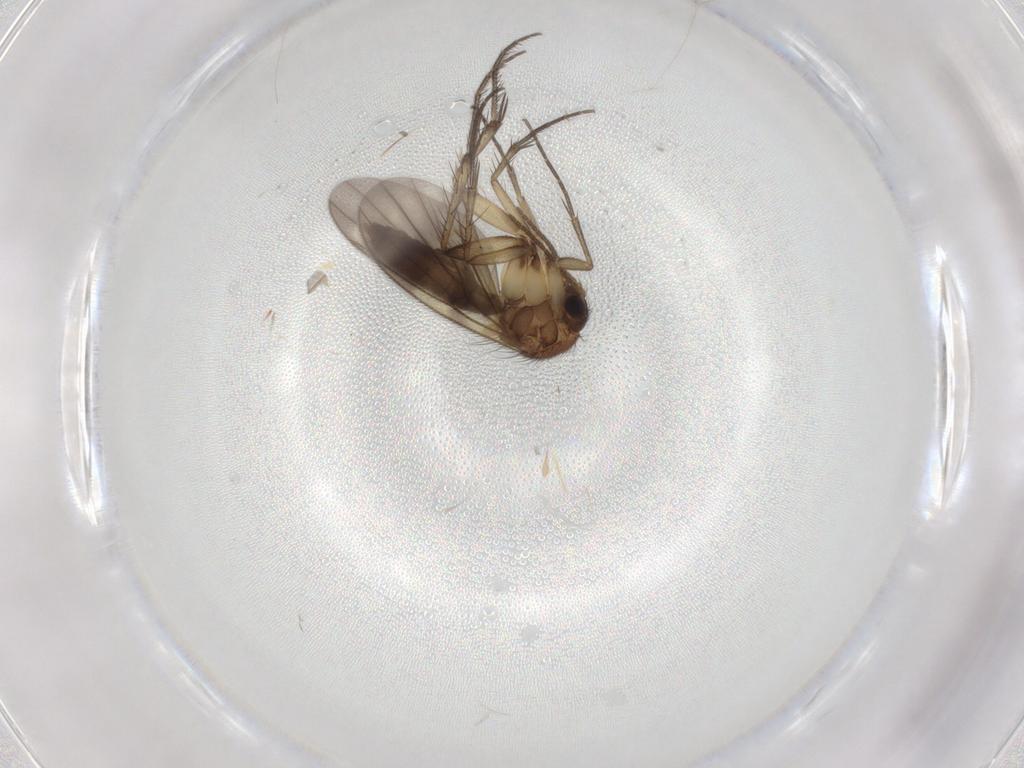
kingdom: Animalia
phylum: Arthropoda
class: Insecta
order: Diptera
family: Mycetophilidae
